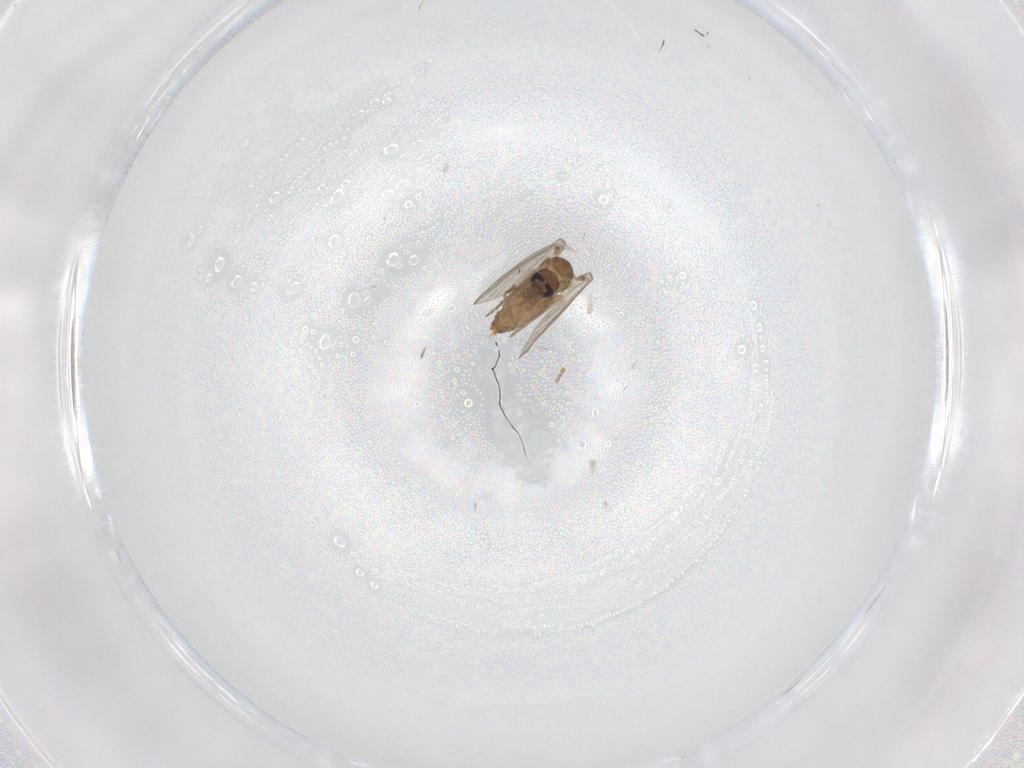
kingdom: Animalia
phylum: Arthropoda
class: Insecta
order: Diptera
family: Psychodidae
